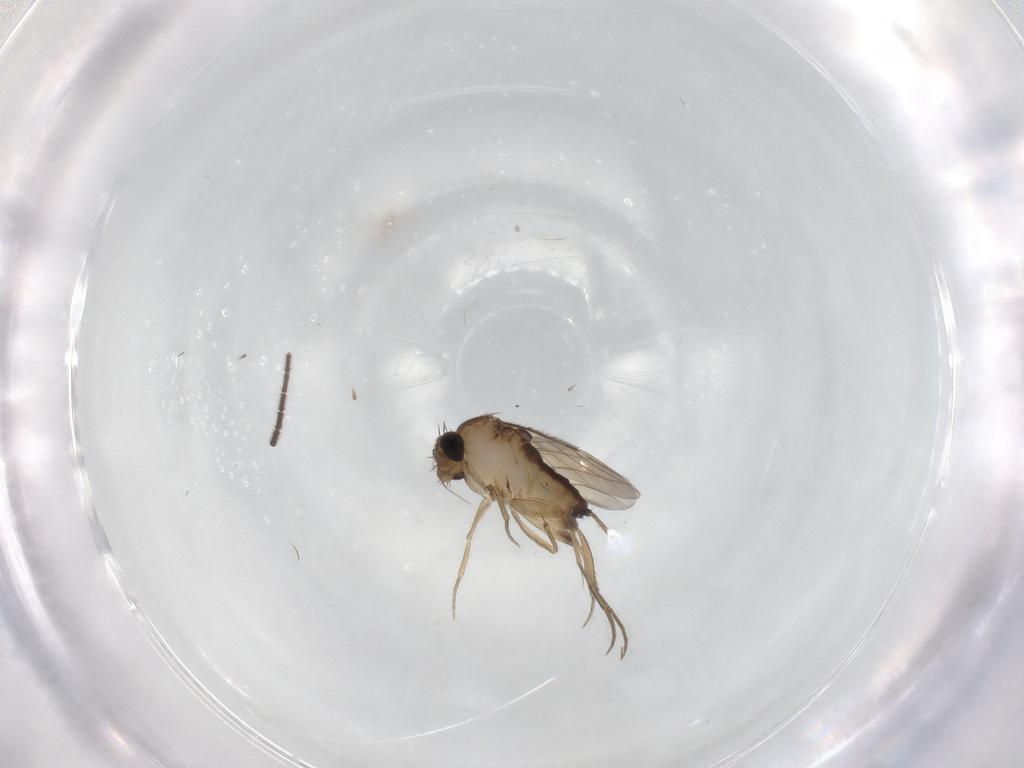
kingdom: Animalia
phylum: Arthropoda
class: Insecta
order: Diptera
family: Phoridae
